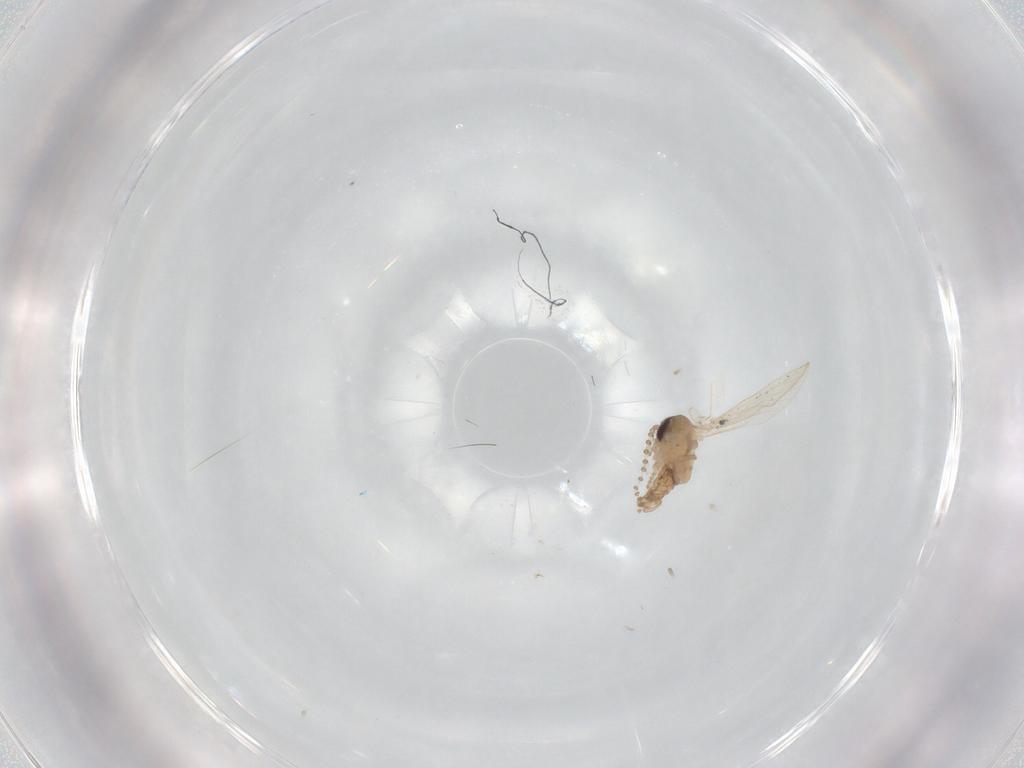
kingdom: Animalia
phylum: Arthropoda
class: Insecta
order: Diptera
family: Psychodidae
